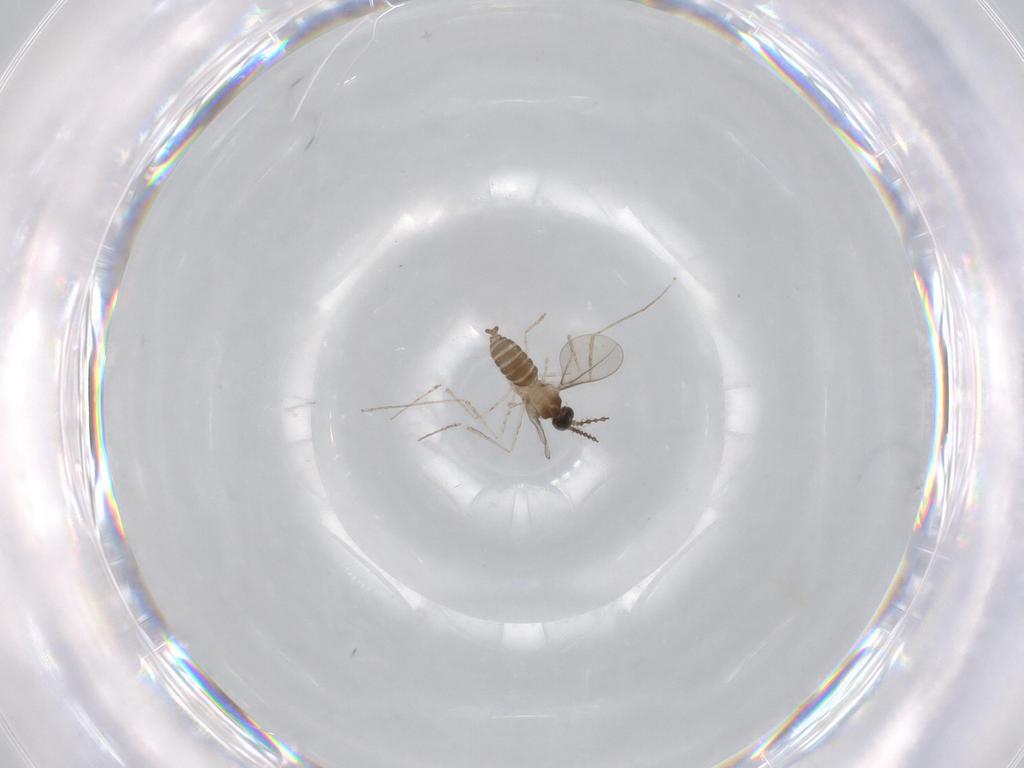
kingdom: Animalia
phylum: Arthropoda
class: Insecta
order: Diptera
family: Cecidomyiidae
